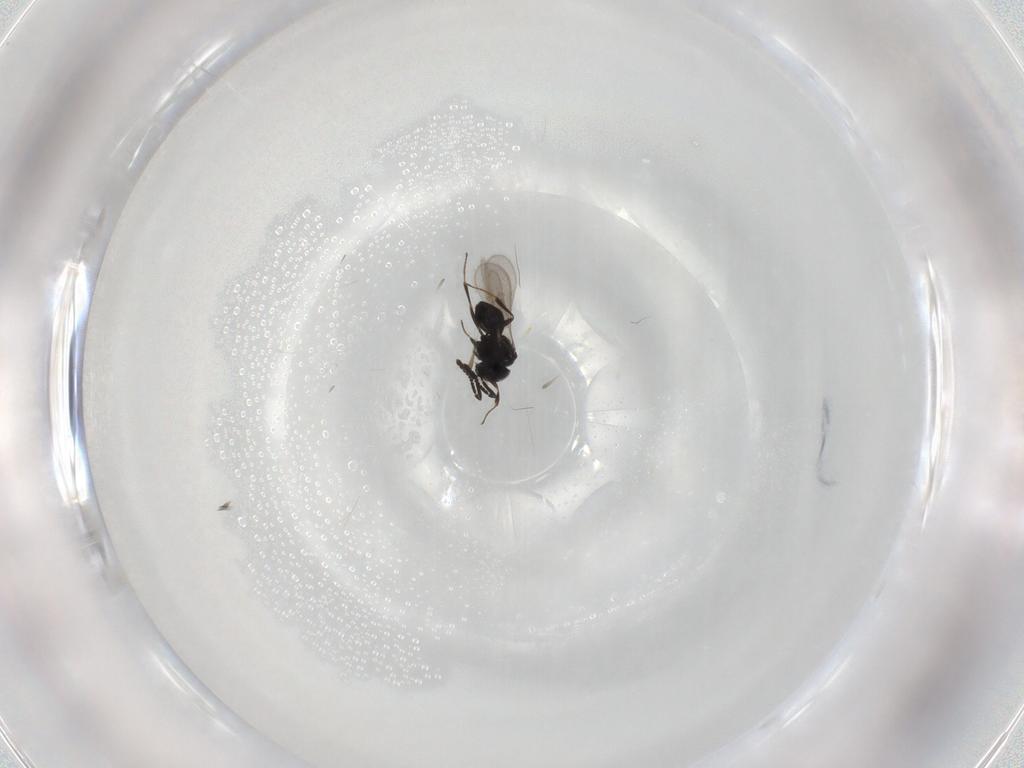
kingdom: Animalia
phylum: Arthropoda
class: Insecta
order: Hymenoptera
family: Scelionidae
